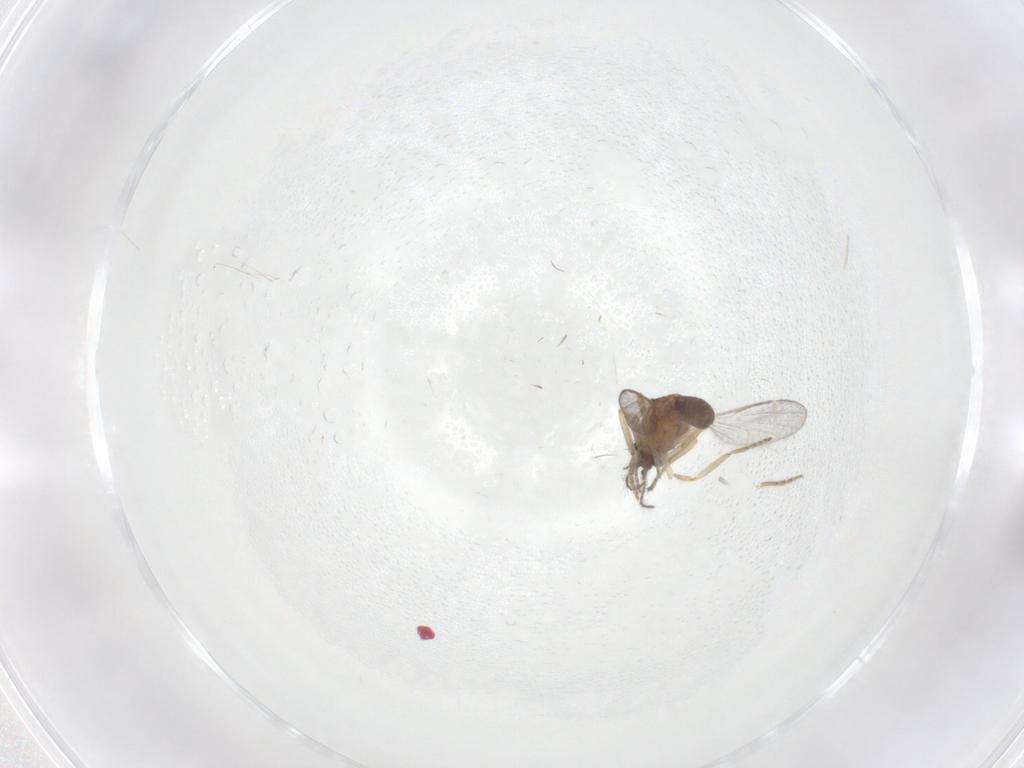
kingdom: Animalia
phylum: Arthropoda
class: Insecta
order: Diptera
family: Ceratopogonidae
